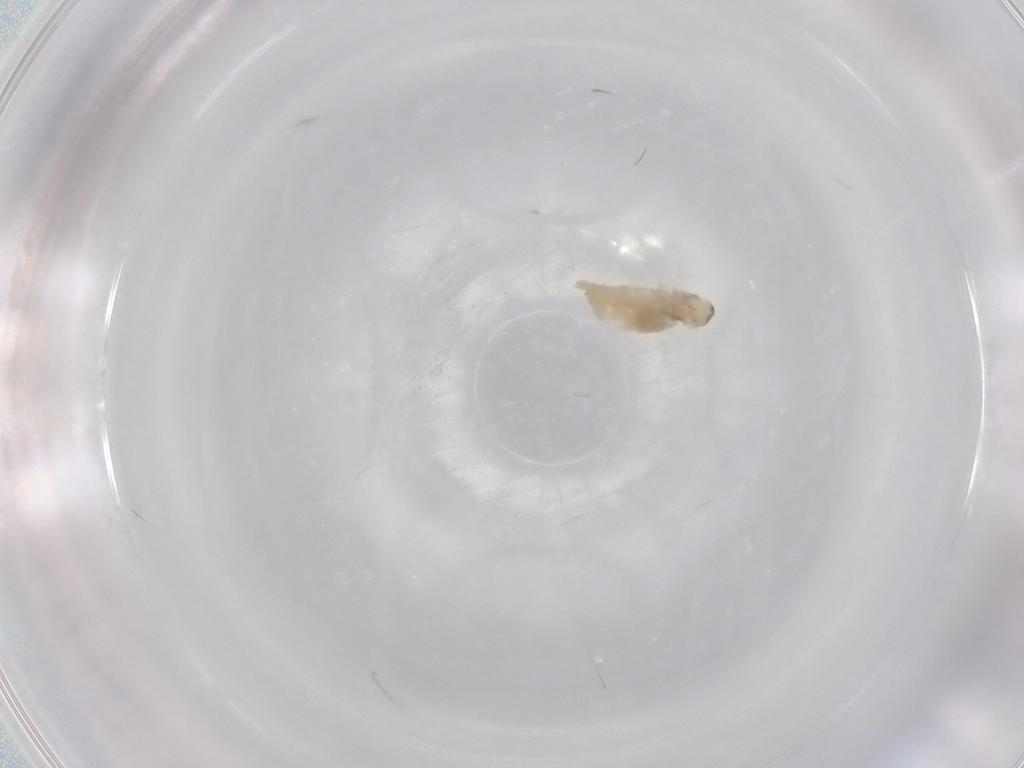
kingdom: Animalia
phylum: Arthropoda
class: Insecta
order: Diptera
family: Cecidomyiidae
